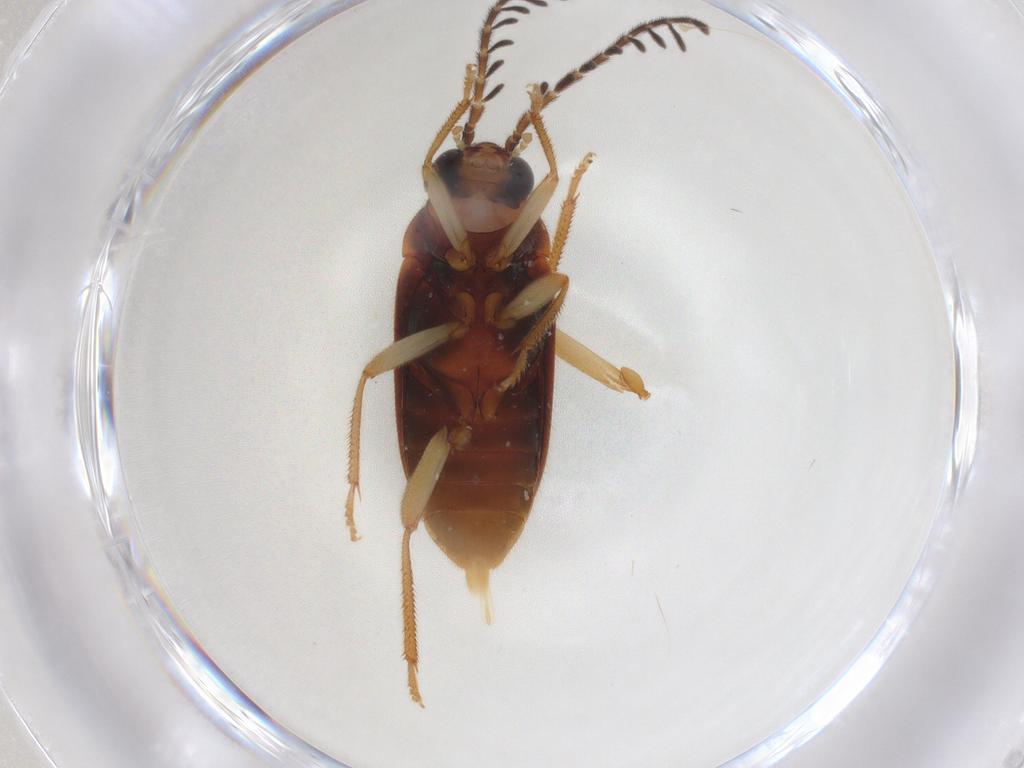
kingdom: Animalia
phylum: Arthropoda
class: Insecta
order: Coleoptera
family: Ptilodactylidae
